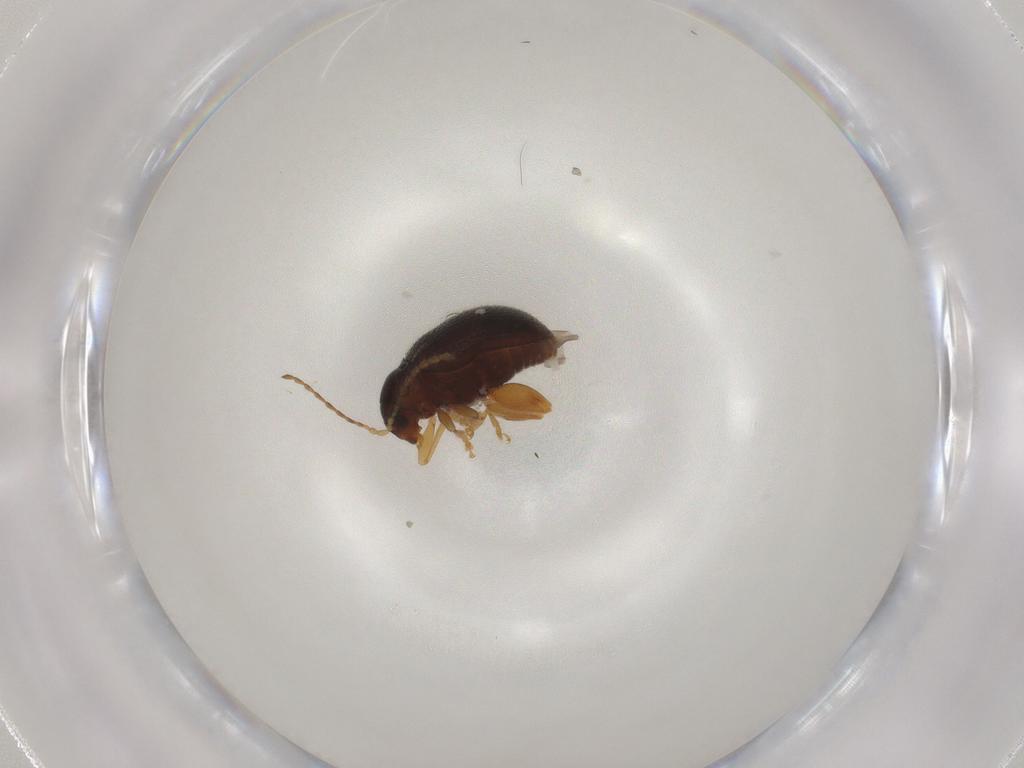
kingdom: Animalia
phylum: Arthropoda
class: Insecta
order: Coleoptera
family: Chrysomelidae
